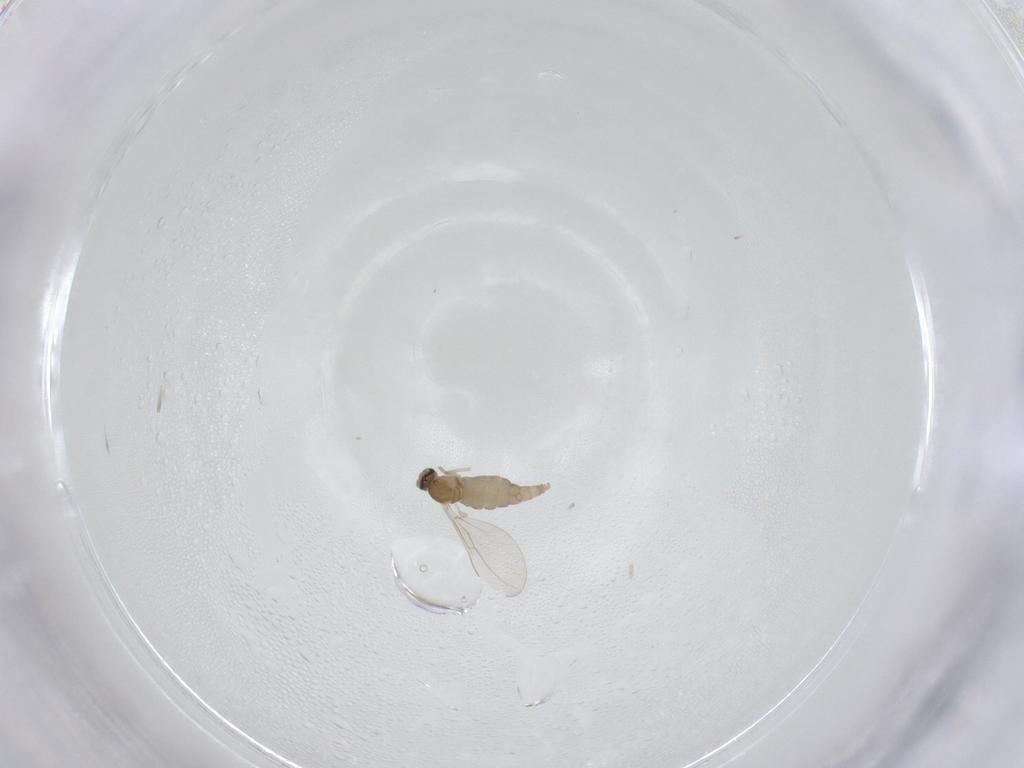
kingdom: Animalia
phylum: Arthropoda
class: Insecta
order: Diptera
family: Cecidomyiidae
